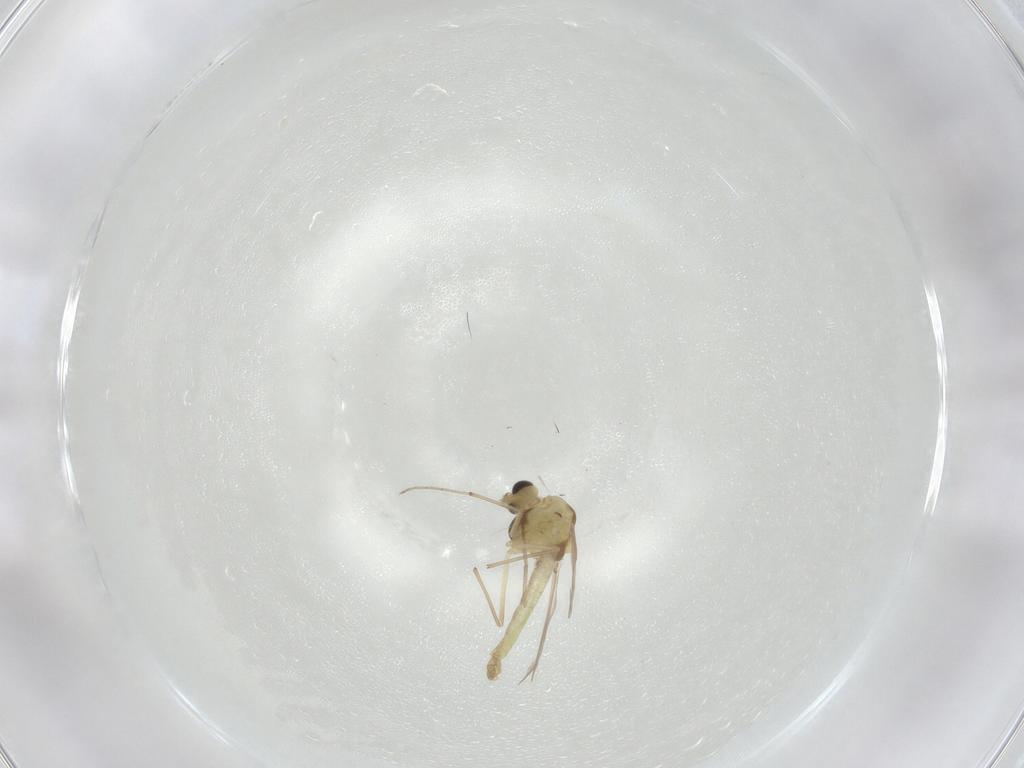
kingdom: Animalia
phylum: Arthropoda
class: Insecta
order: Diptera
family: Chironomidae
